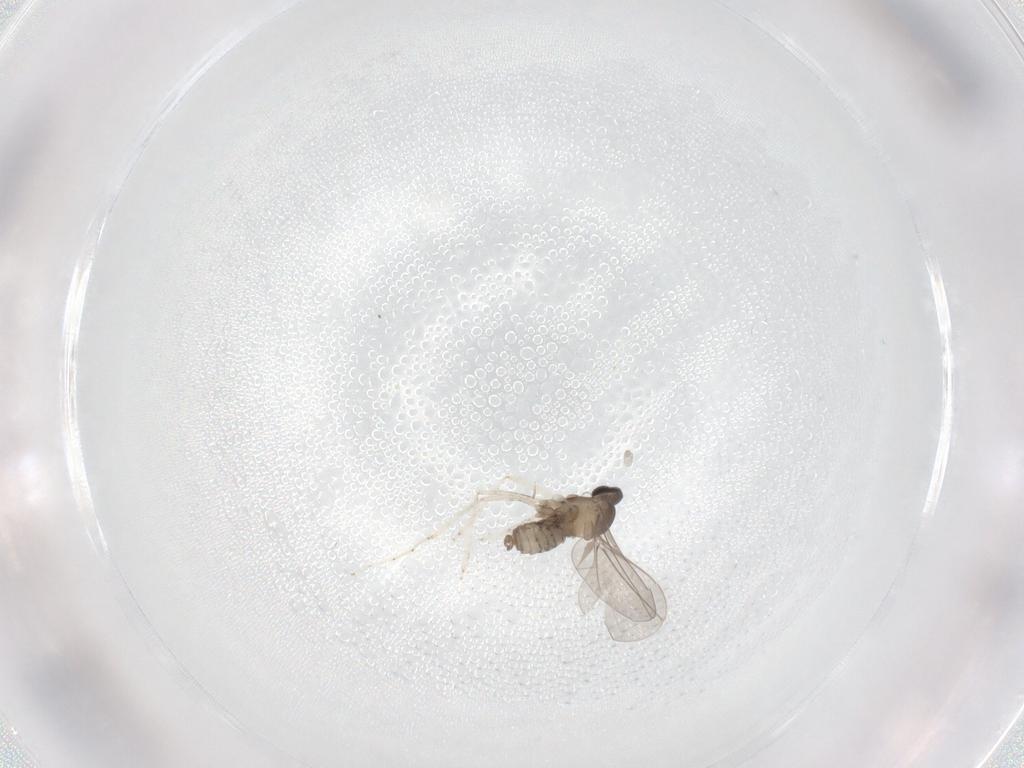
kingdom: Animalia
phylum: Arthropoda
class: Insecta
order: Diptera
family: Cecidomyiidae
